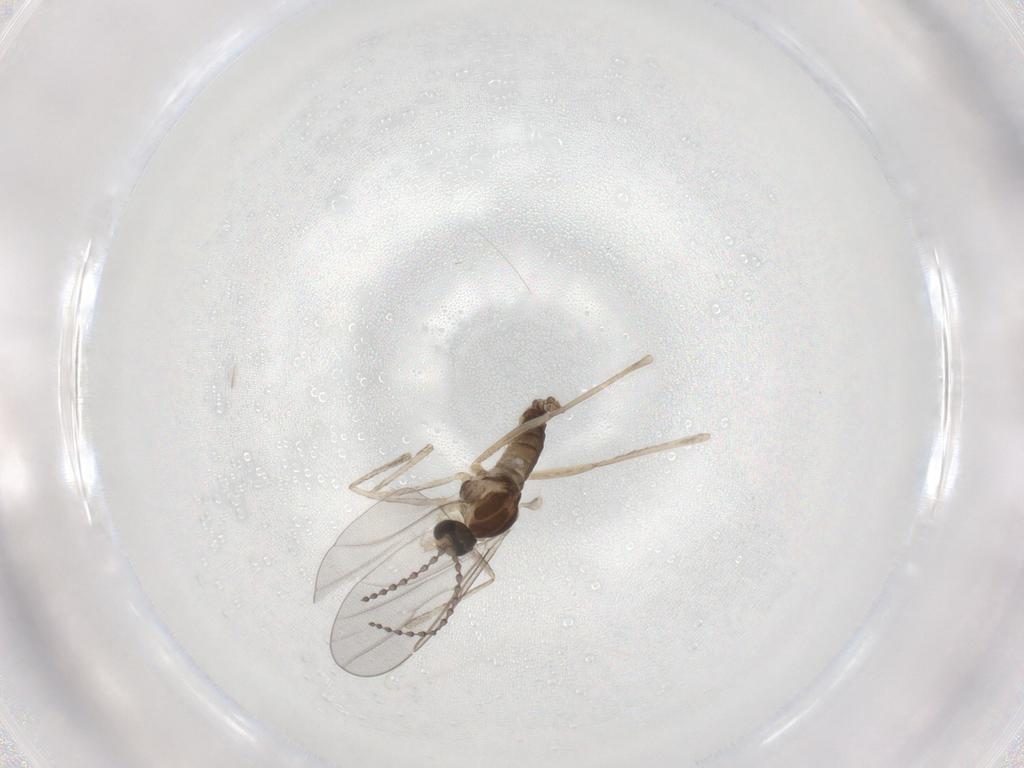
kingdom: Animalia
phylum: Arthropoda
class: Insecta
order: Diptera
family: Cecidomyiidae
